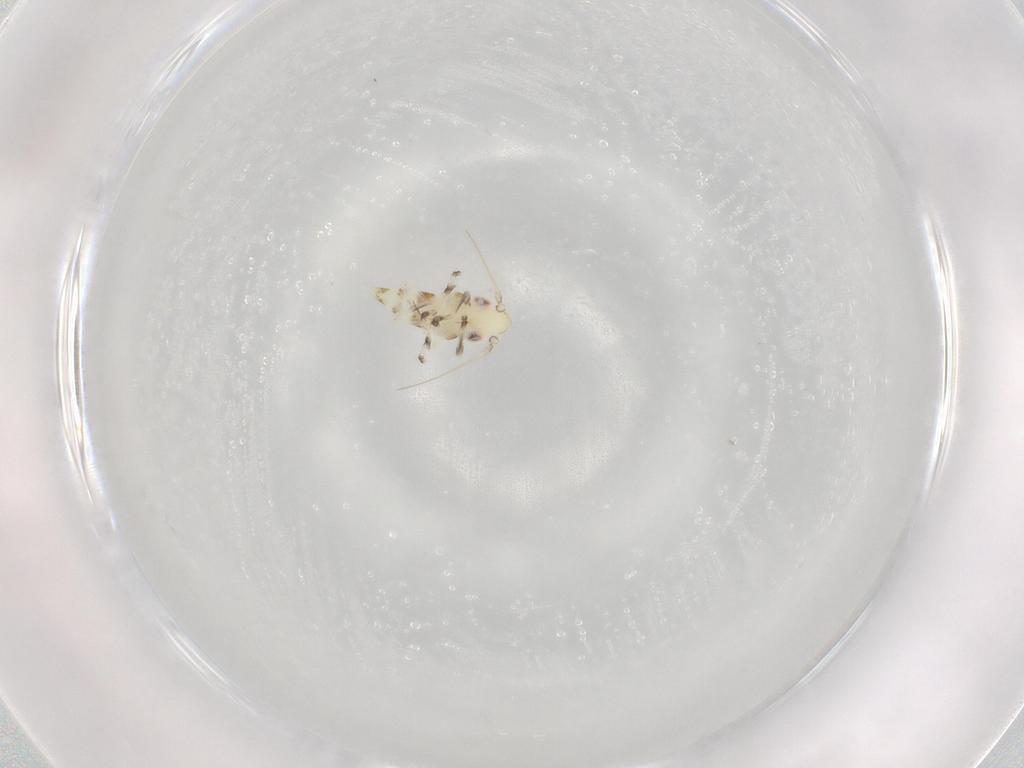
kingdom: Animalia
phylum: Arthropoda
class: Insecta
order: Hemiptera
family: Cicadellidae
